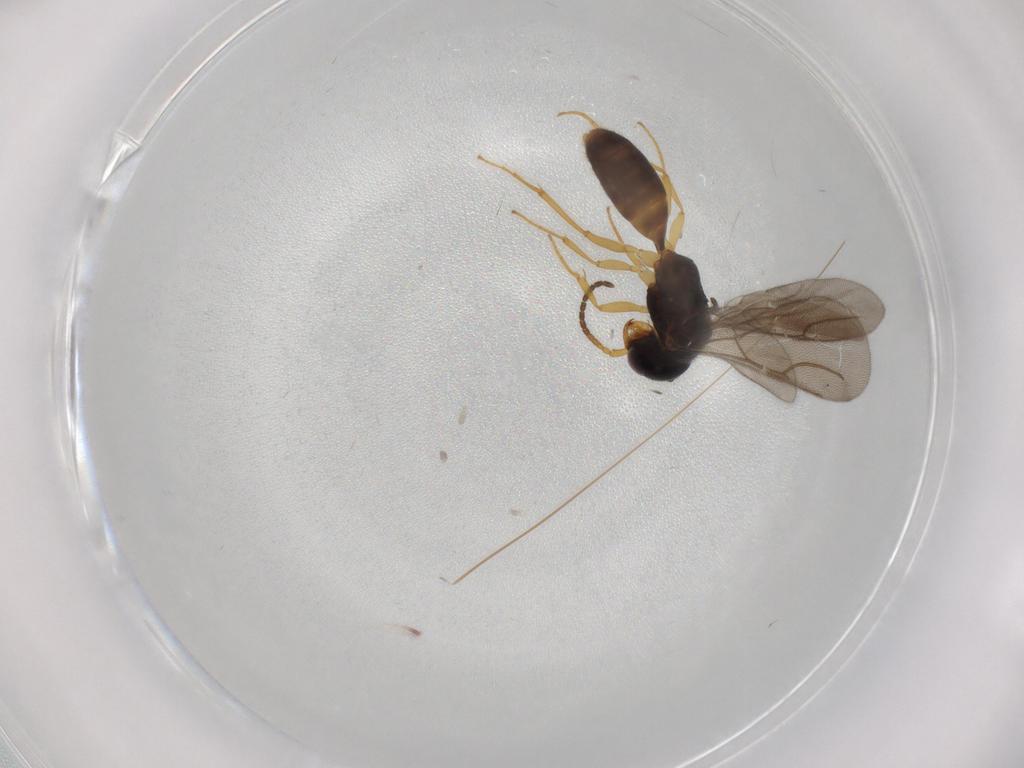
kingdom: Animalia
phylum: Arthropoda
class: Insecta
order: Hymenoptera
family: Bethylidae
